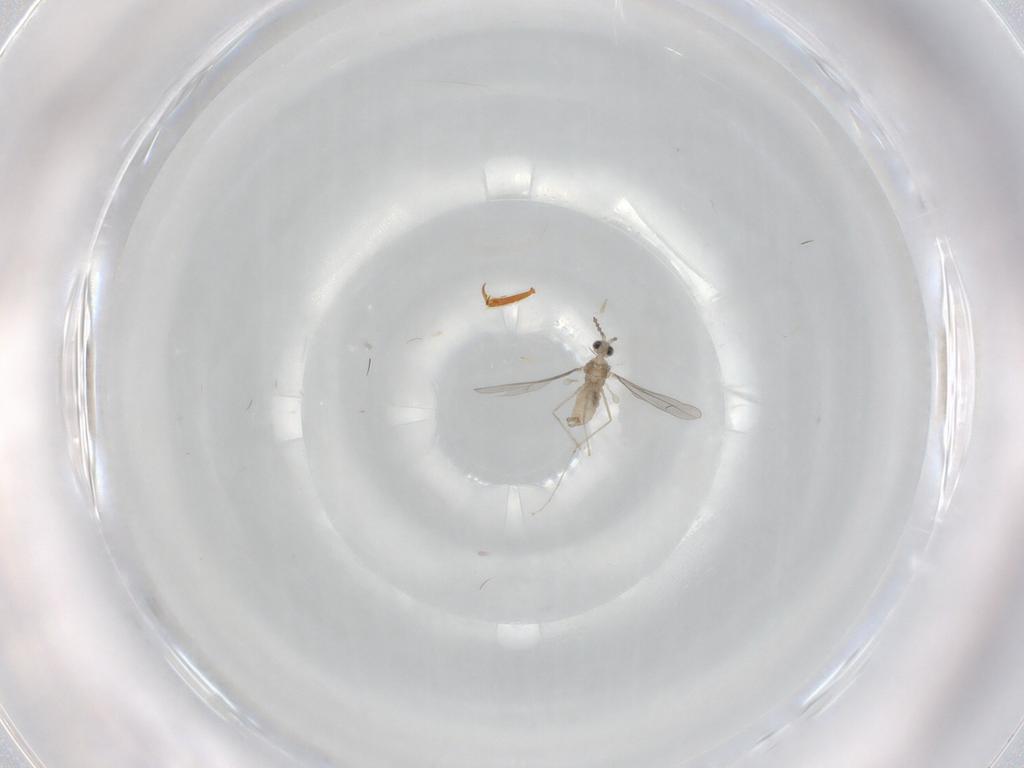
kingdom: Animalia
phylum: Arthropoda
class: Insecta
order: Diptera
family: Cecidomyiidae
